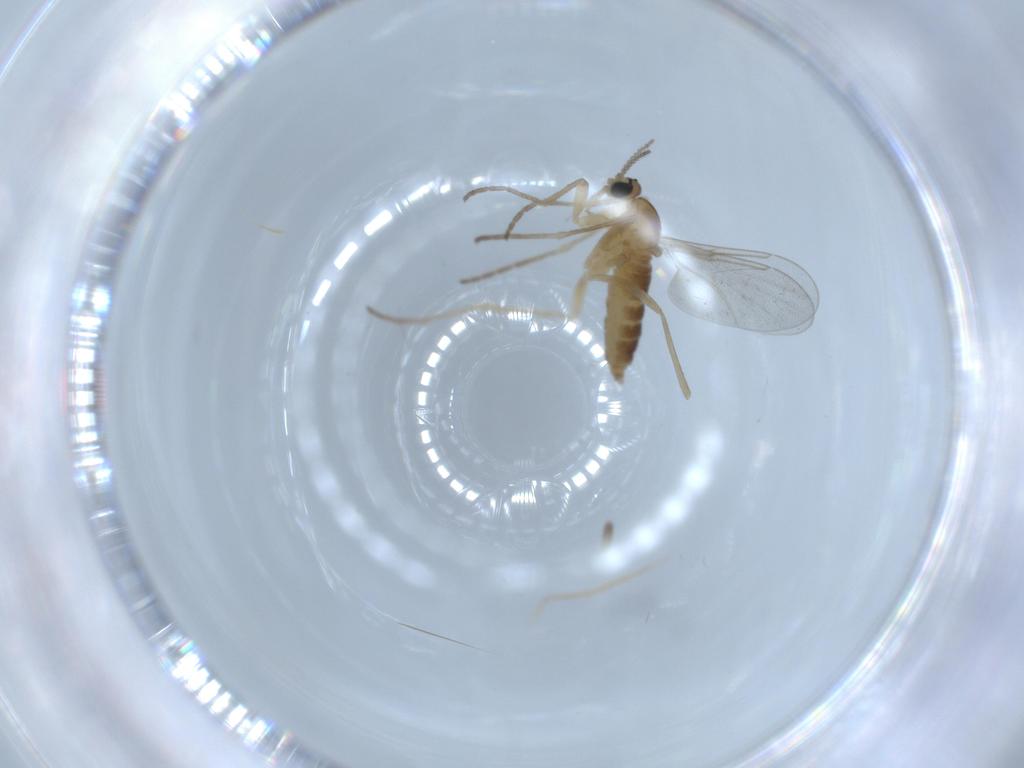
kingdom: Animalia
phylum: Arthropoda
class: Insecta
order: Diptera
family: Cecidomyiidae
